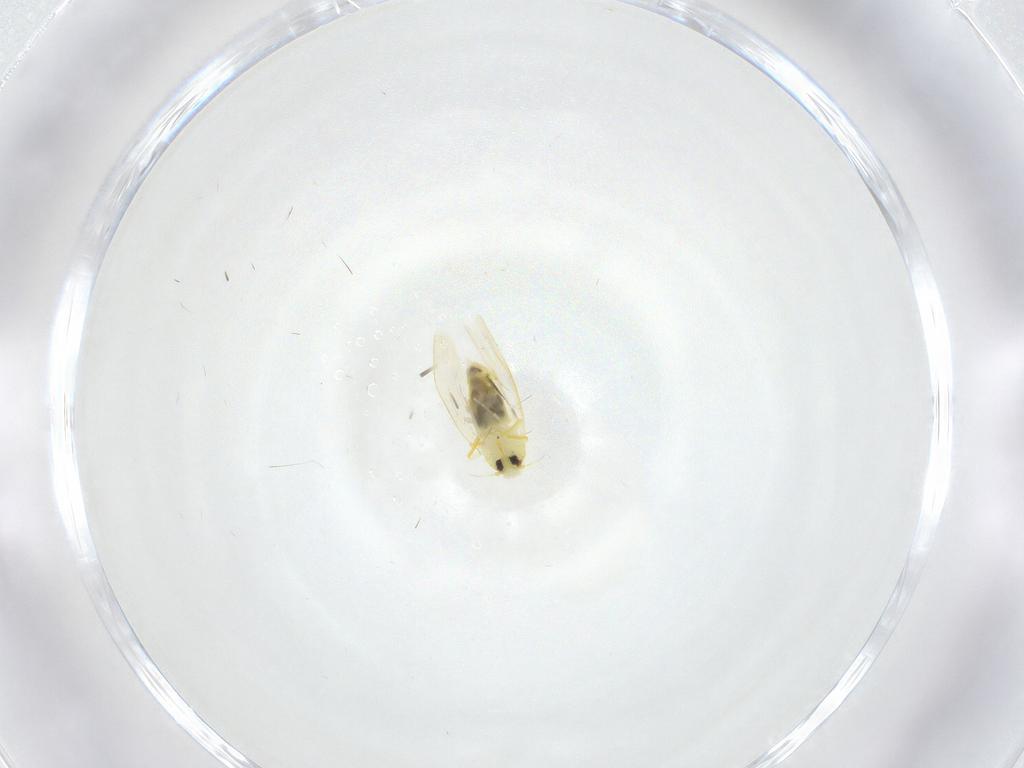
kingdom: Animalia
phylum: Arthropoda
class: Insecta
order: Hemiptera
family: Aleyrodidae
